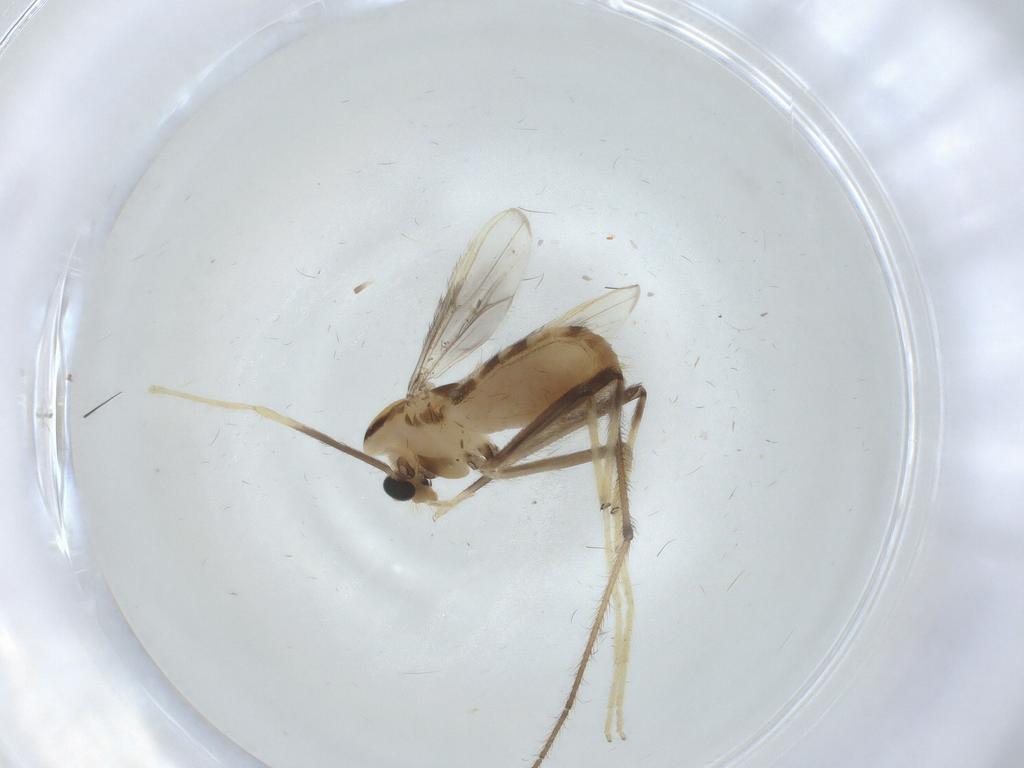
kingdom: Animalia
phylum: Arthropoda
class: Insecta
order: Diptera
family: Chironomidae
